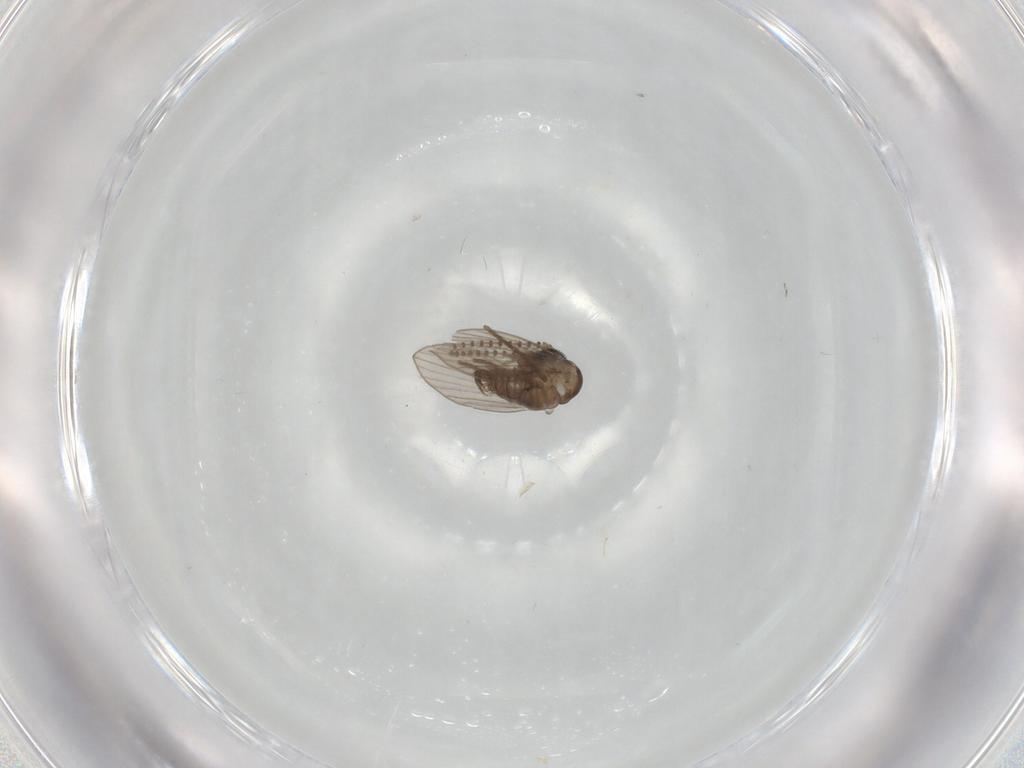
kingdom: Animalia
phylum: Arthropoda
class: Insecta
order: Diptera
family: Psychodidae
